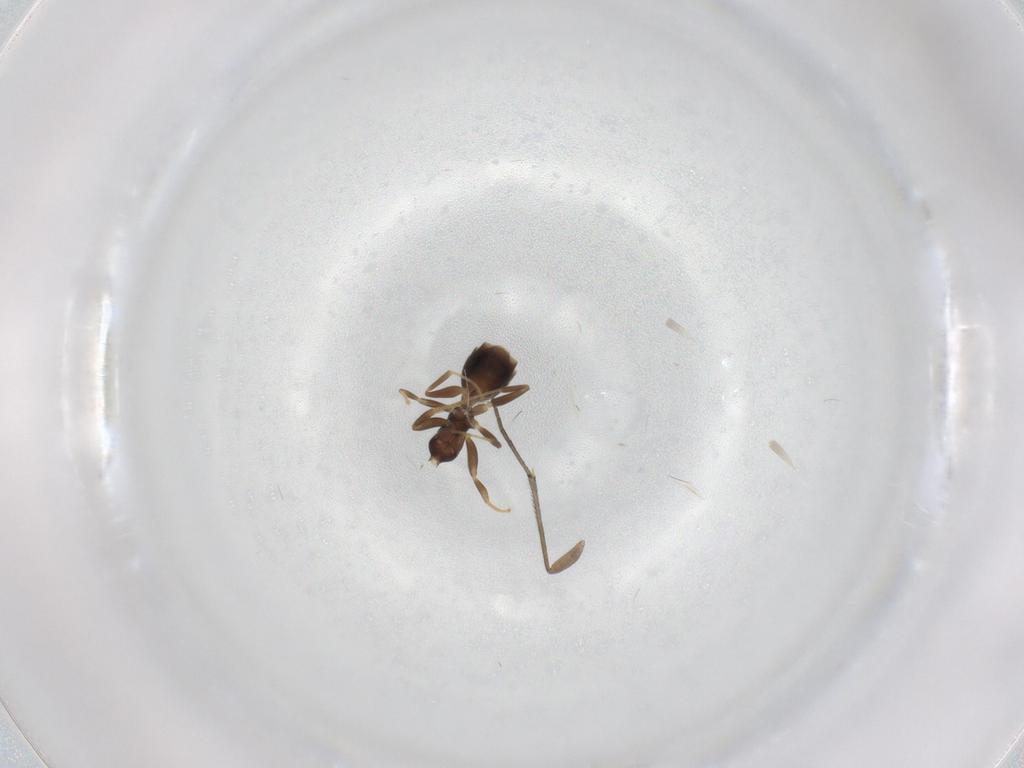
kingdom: Animalia
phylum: Arthropoda
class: Insecta
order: Hymenoptera
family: Formicidae
